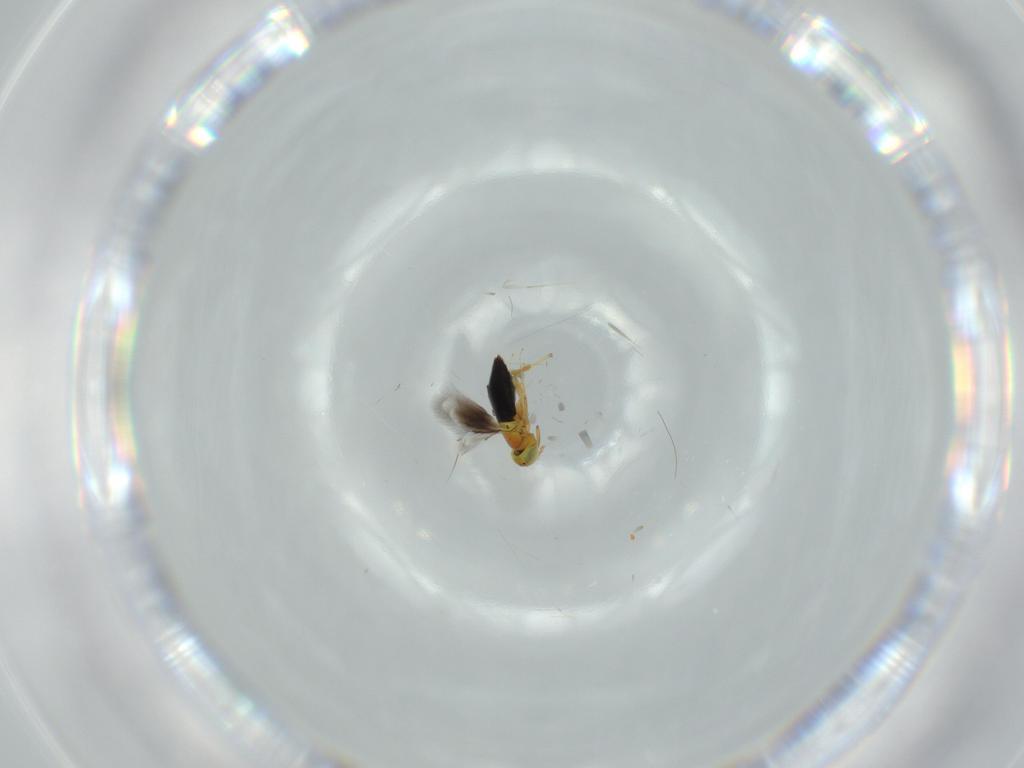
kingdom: Animalia
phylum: Arthropoda
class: Insecta
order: Hymenoptera
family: Signiphoridae
